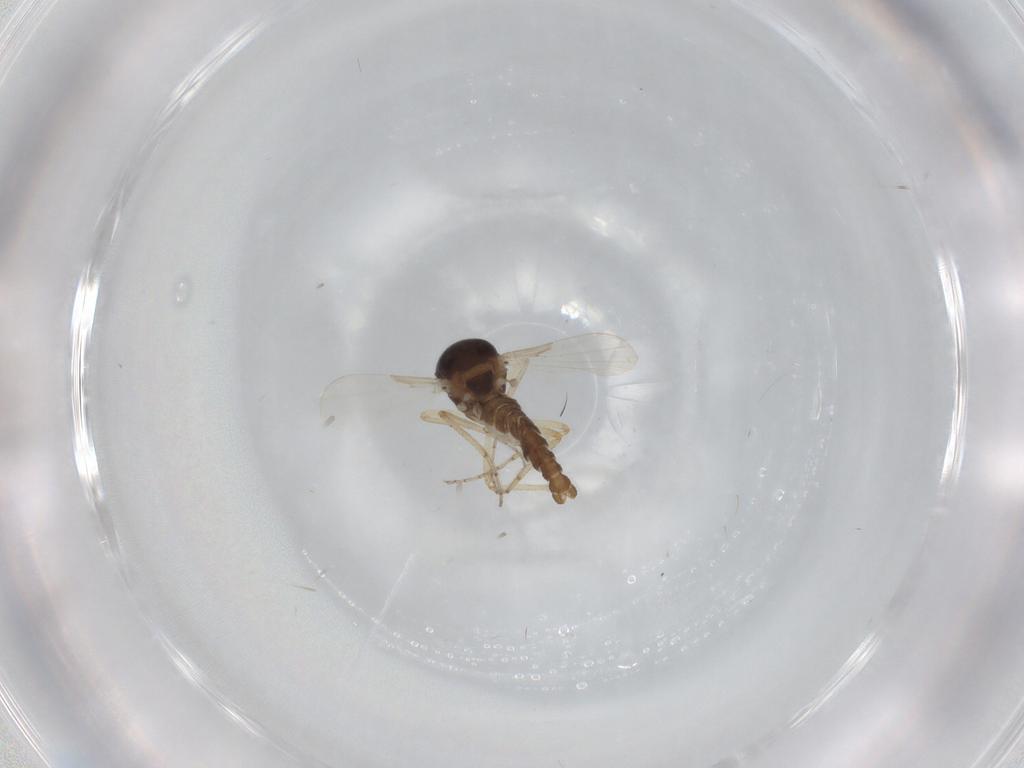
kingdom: Animalia
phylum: Arthropoda
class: Insecta
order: Diptera
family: Ceratopogonidae
